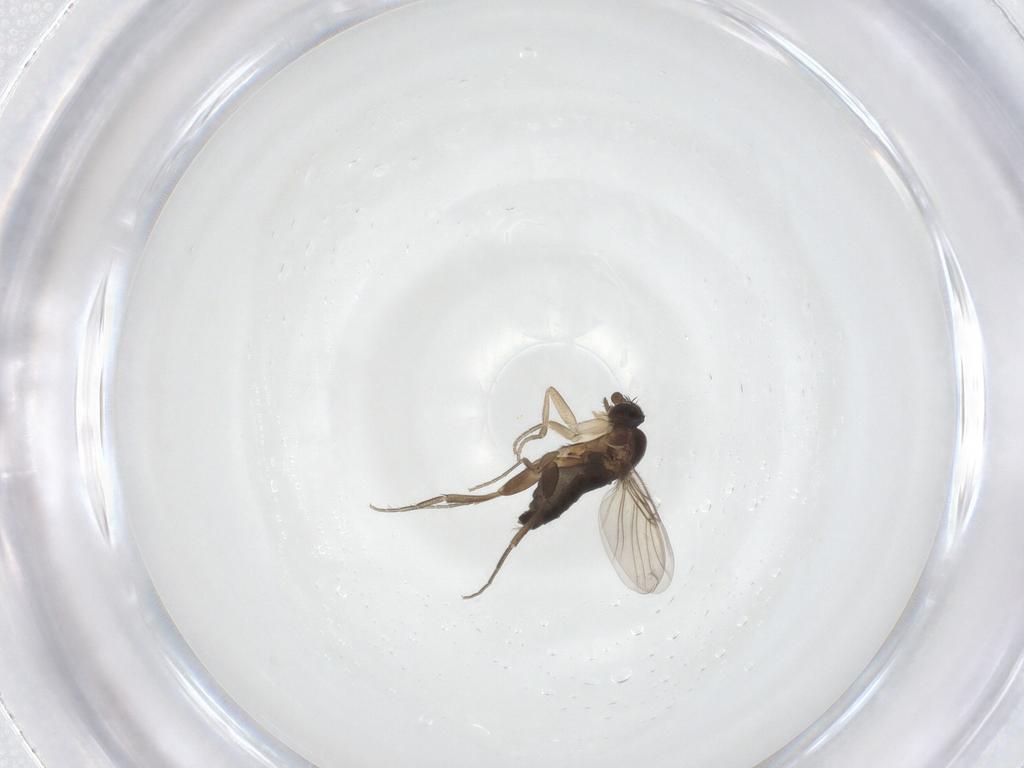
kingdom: Animalia
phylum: Arthropoda
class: Insecta
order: Diptera
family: Phoridae
